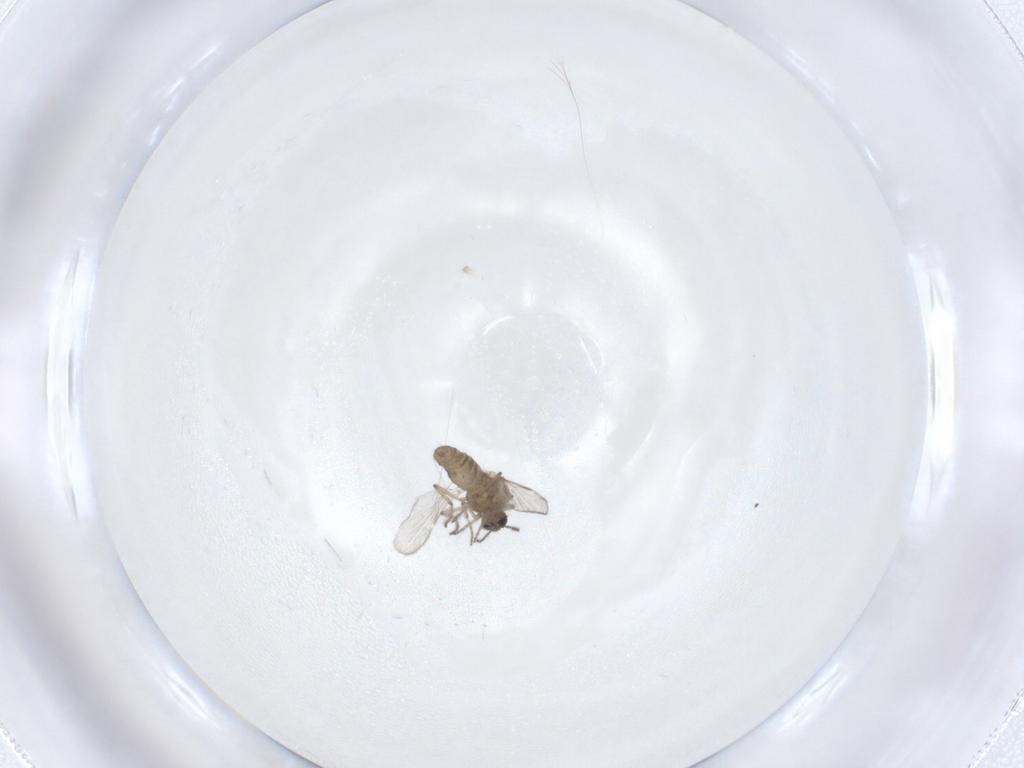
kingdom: Animalia
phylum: Arthropoda
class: Insecta
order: Diptera
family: Ceratopogonidae
